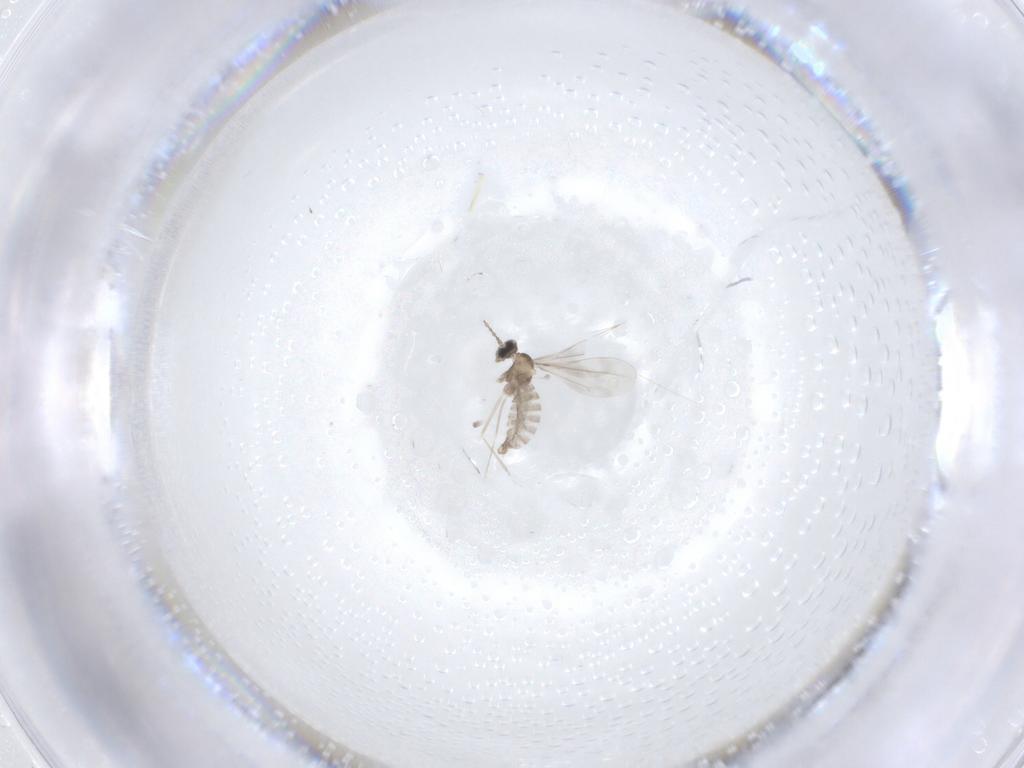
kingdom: Animalia
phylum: Arthropoda
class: Insecta
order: Diptera
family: Cecidomyiidae
